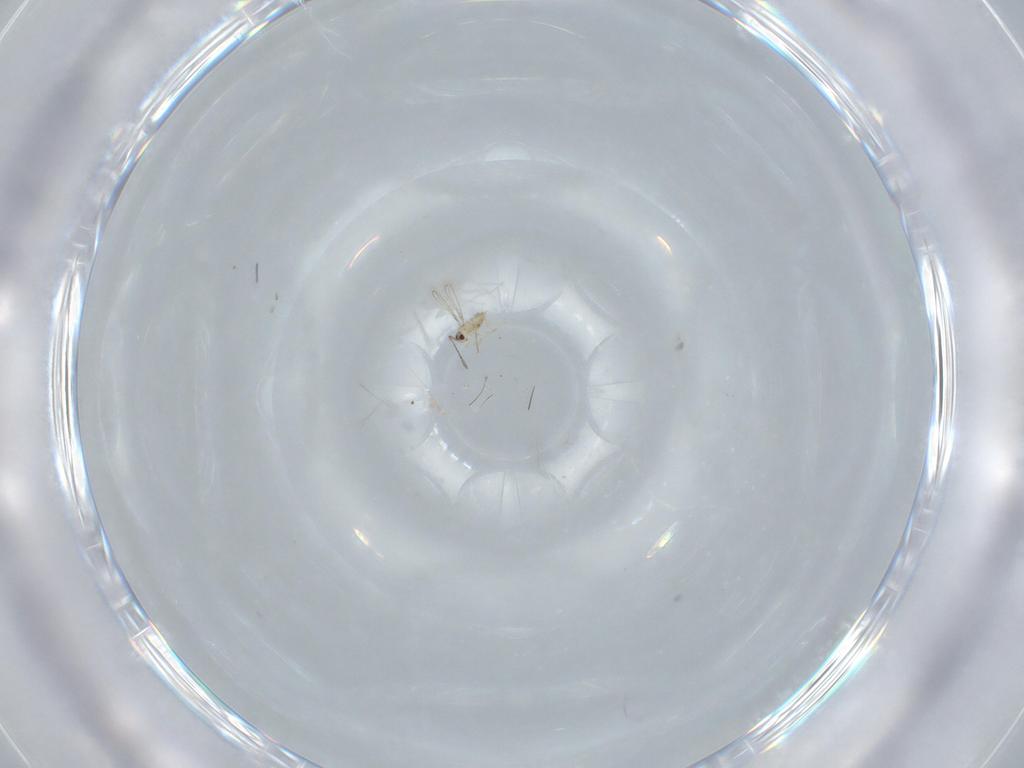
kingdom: Animalia
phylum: Arthropoda
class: Insecta
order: Hymenoptera
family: Mymaridae
